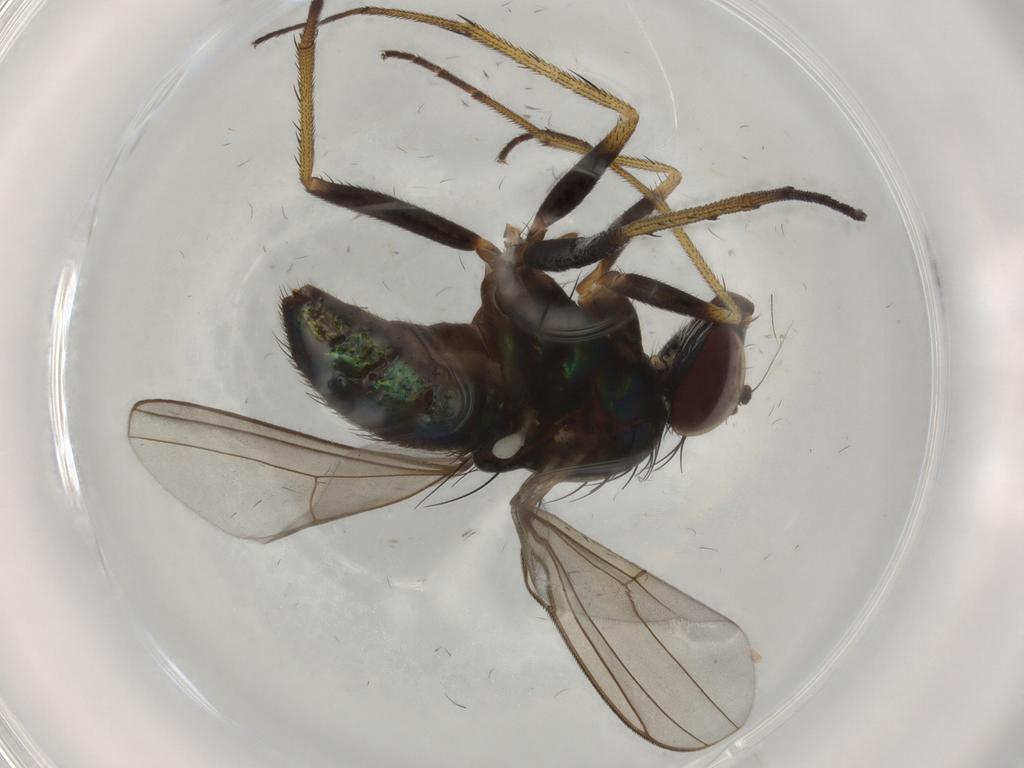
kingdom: Animalia
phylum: Arthropoda
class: Insecta
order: Diptera
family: Dolichopodidae
